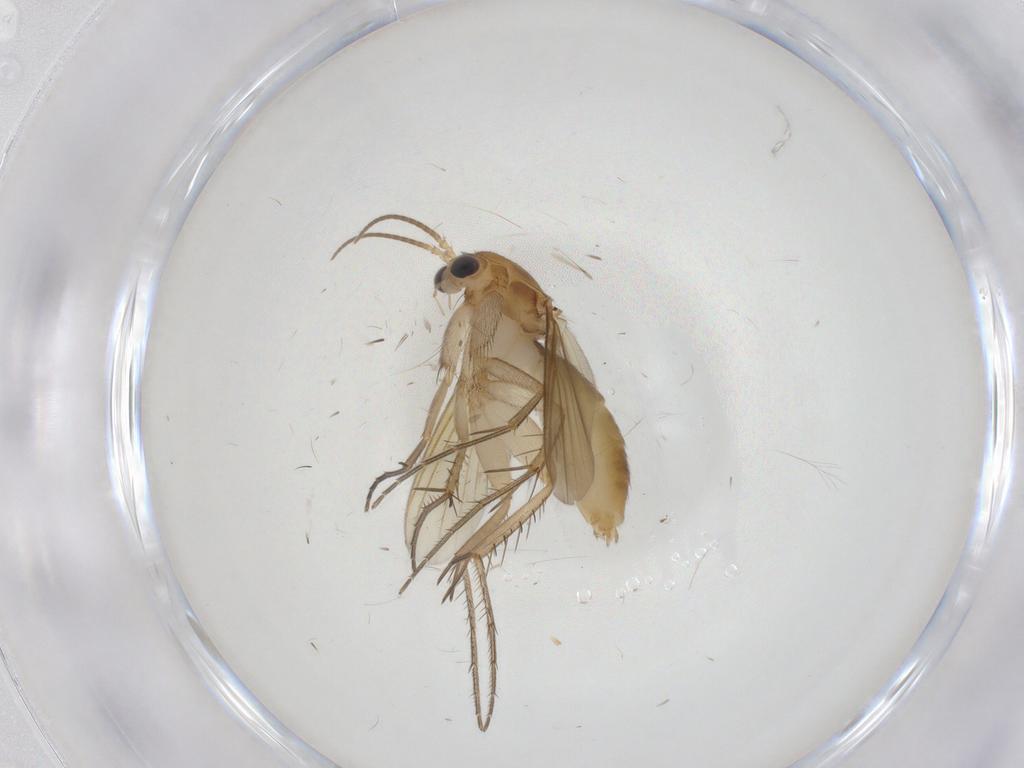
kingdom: Animalia
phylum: Arthropoda
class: Insecta
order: Diptera
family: Mycetophilidae
